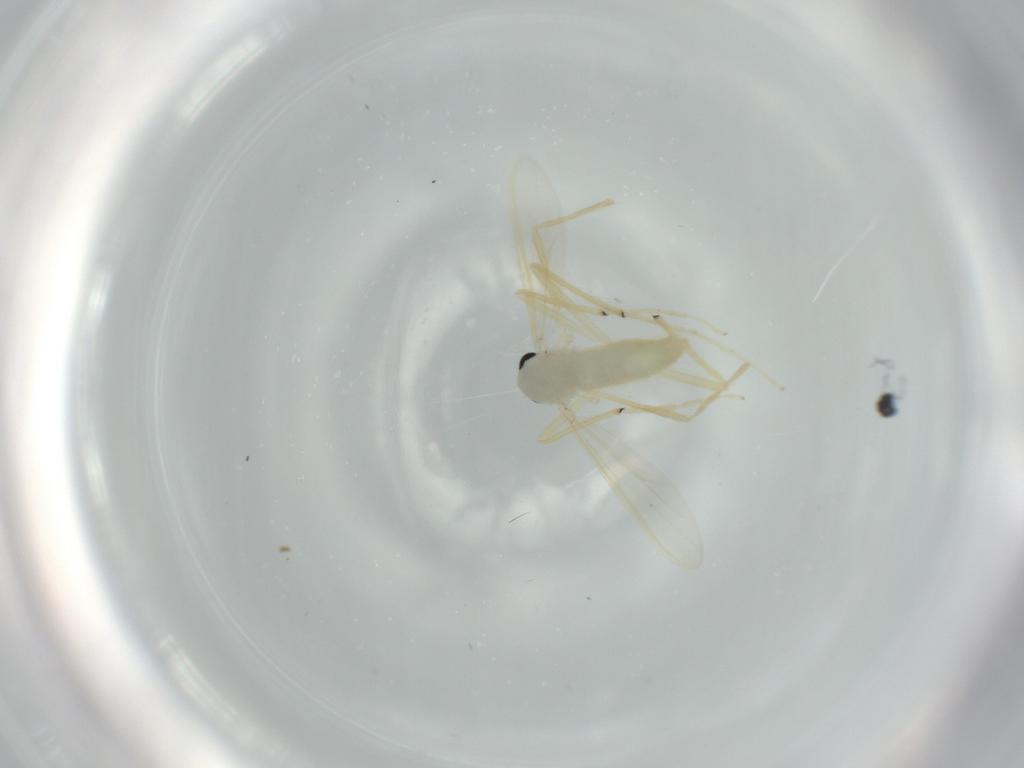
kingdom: Animalia
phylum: Arthropoda
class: Insecta
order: Diptera
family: Chironomidae
